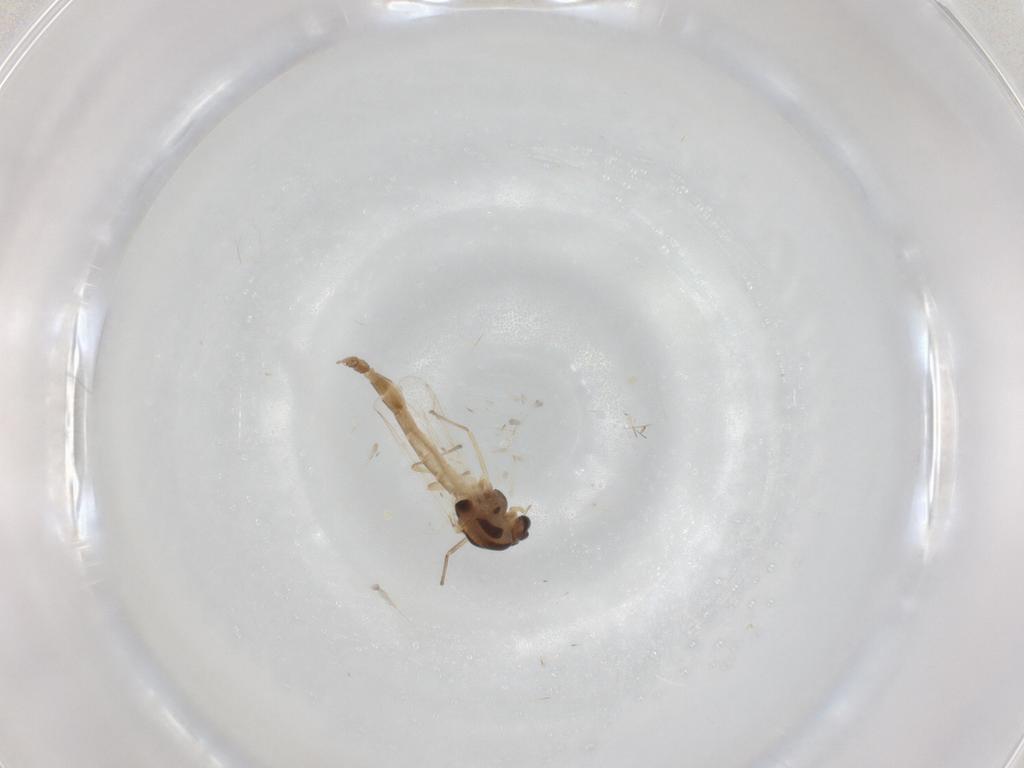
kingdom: Animalia
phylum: Arthropoda
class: Insecta
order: Diptera
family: Chironomidae
